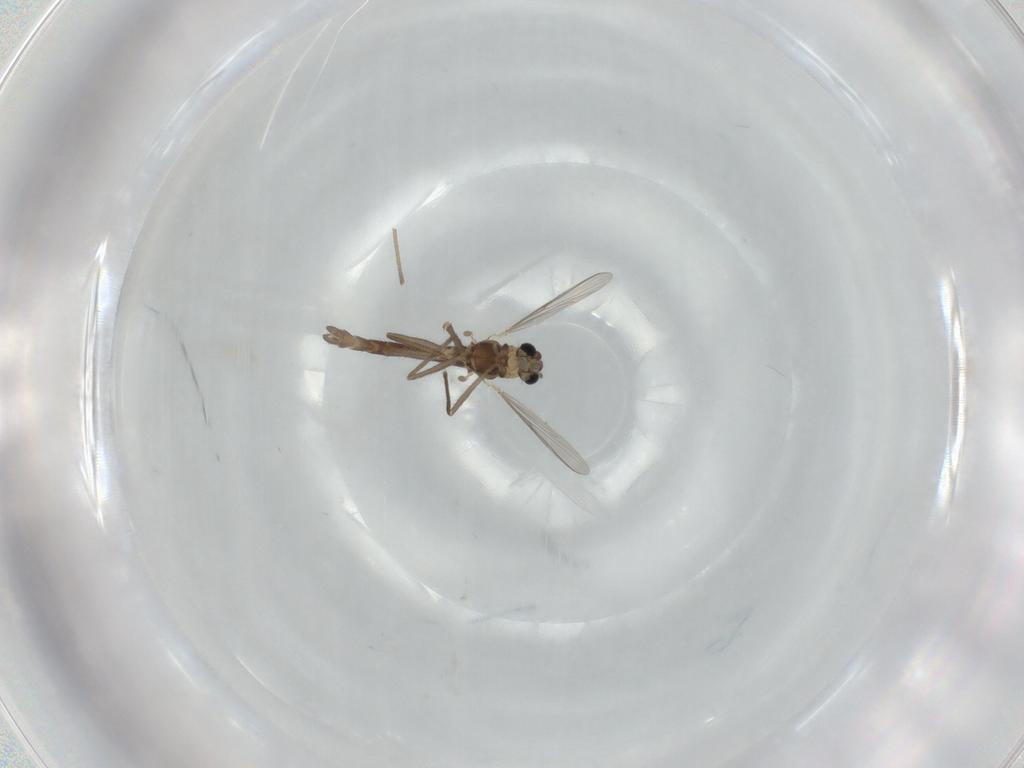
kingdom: Animalia
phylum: Arthropoda
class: Insecta
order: Diptera
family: Chironomidae
